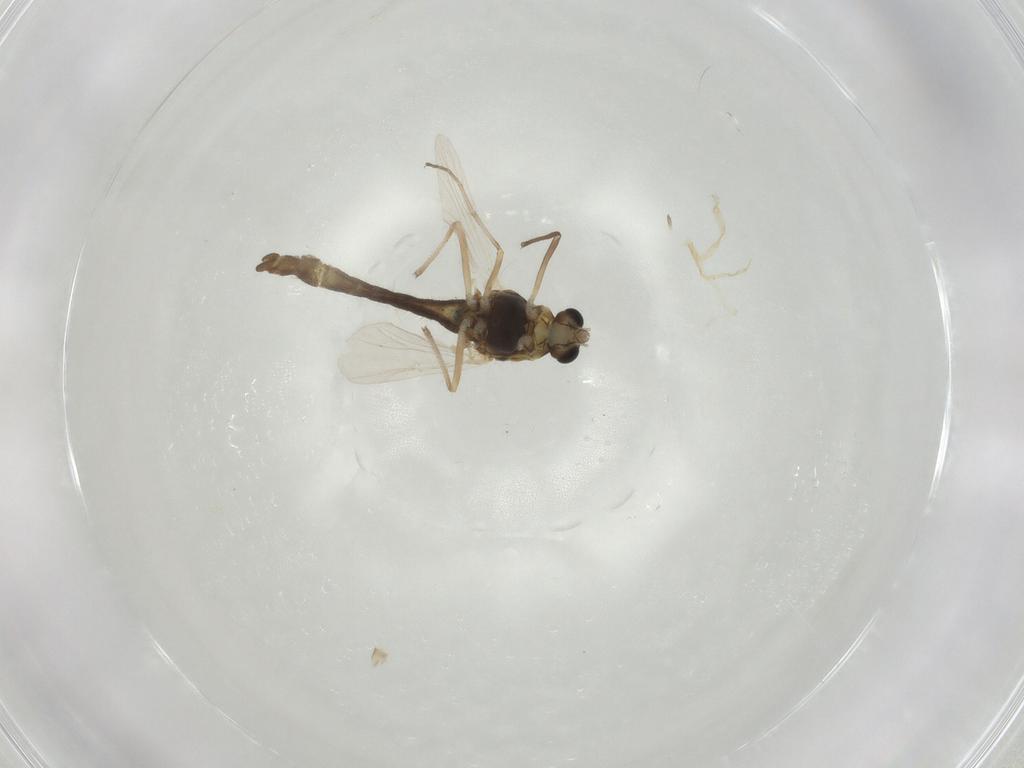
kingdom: Animalia
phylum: Arthropoda
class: Insecta
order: Diptera
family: Chironomidae
